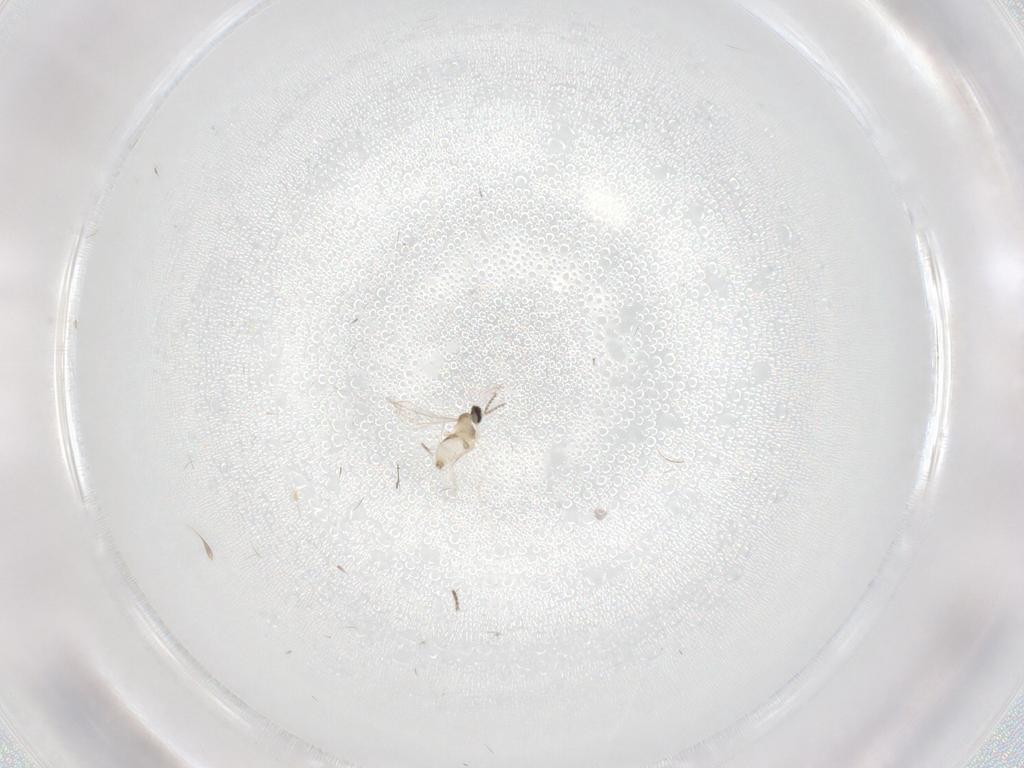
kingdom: Animalia
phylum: Arthropoda
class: Insecta
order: Diptera
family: Cecidomyiidae
